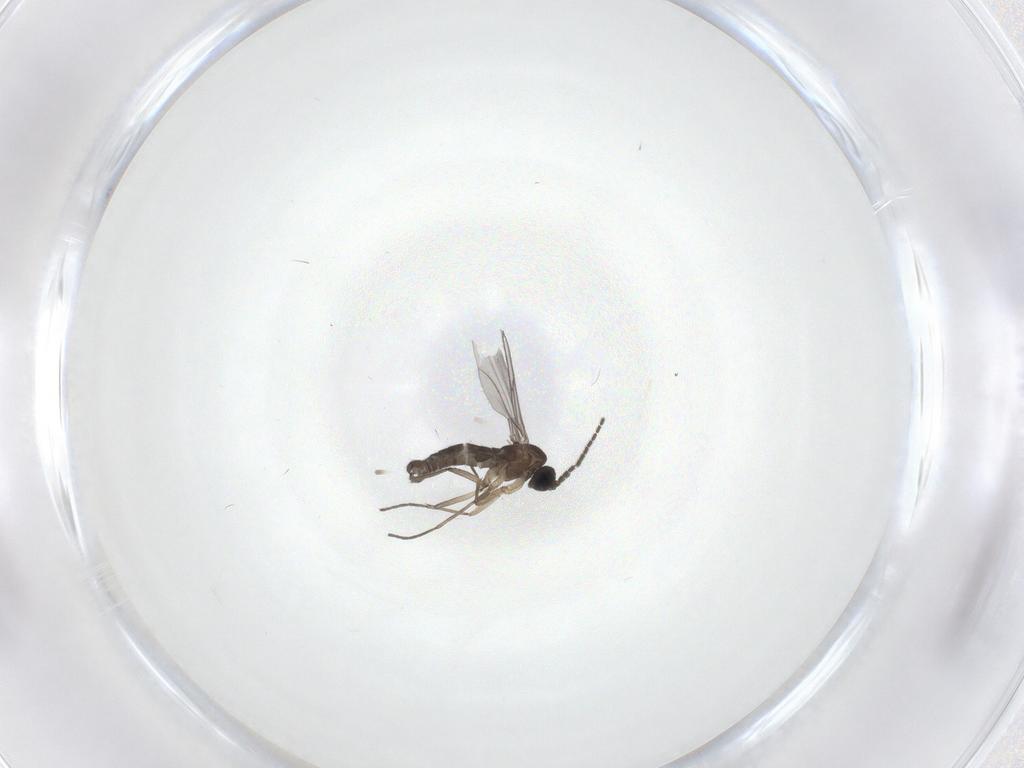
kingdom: Animalia
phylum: Arthropoda
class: Insecta
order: Diptera
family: Sciaridae
